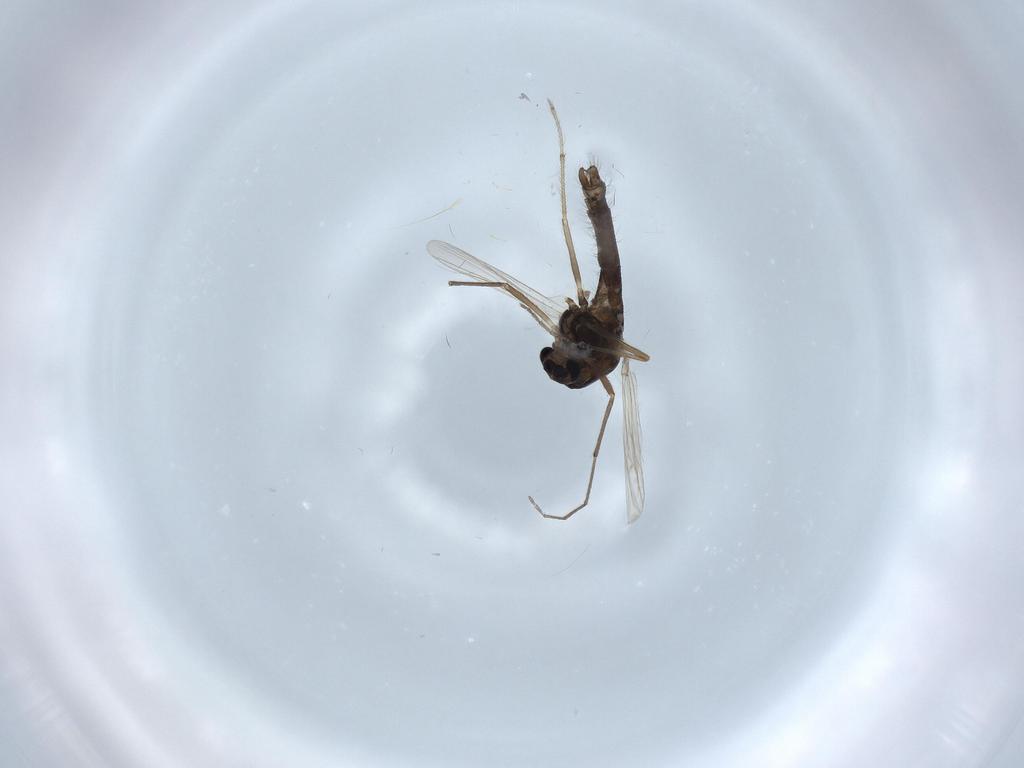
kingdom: Animalia
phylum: Arthropoda
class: Insecta
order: Diptera
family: Chironomidae
